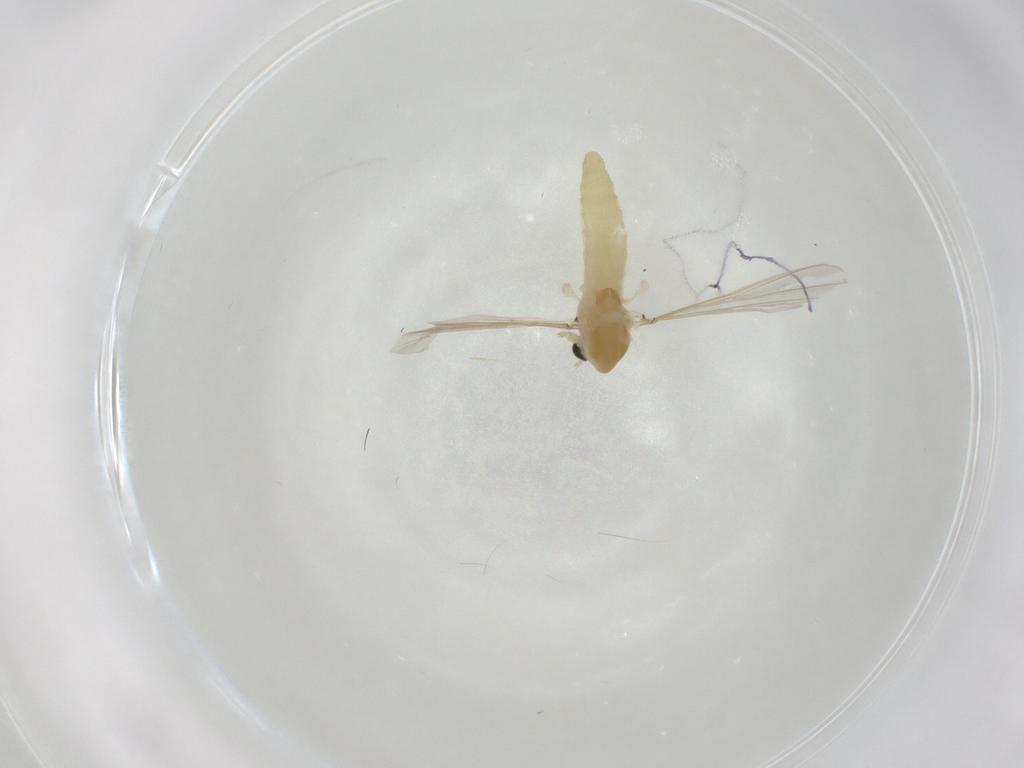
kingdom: Animalia
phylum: Arthropoda
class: Insecta
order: Diptera
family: Chironomidae
